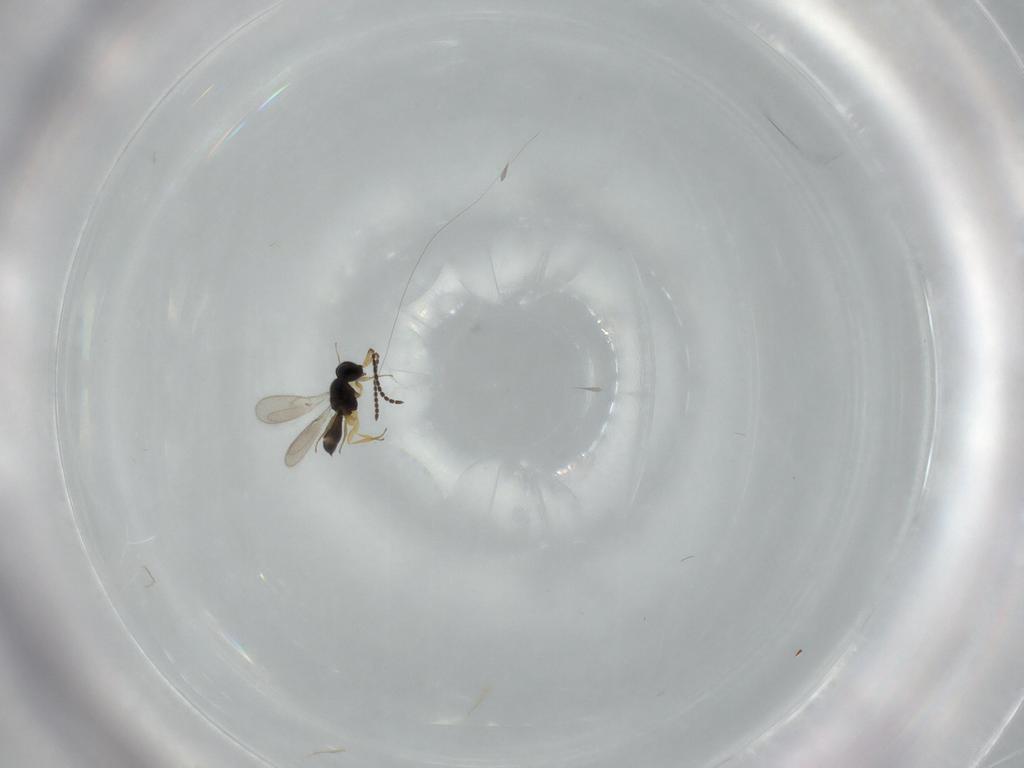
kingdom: Animalia
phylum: Arthropoda
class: Insecta
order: Hymenoptera
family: Scelionidae
